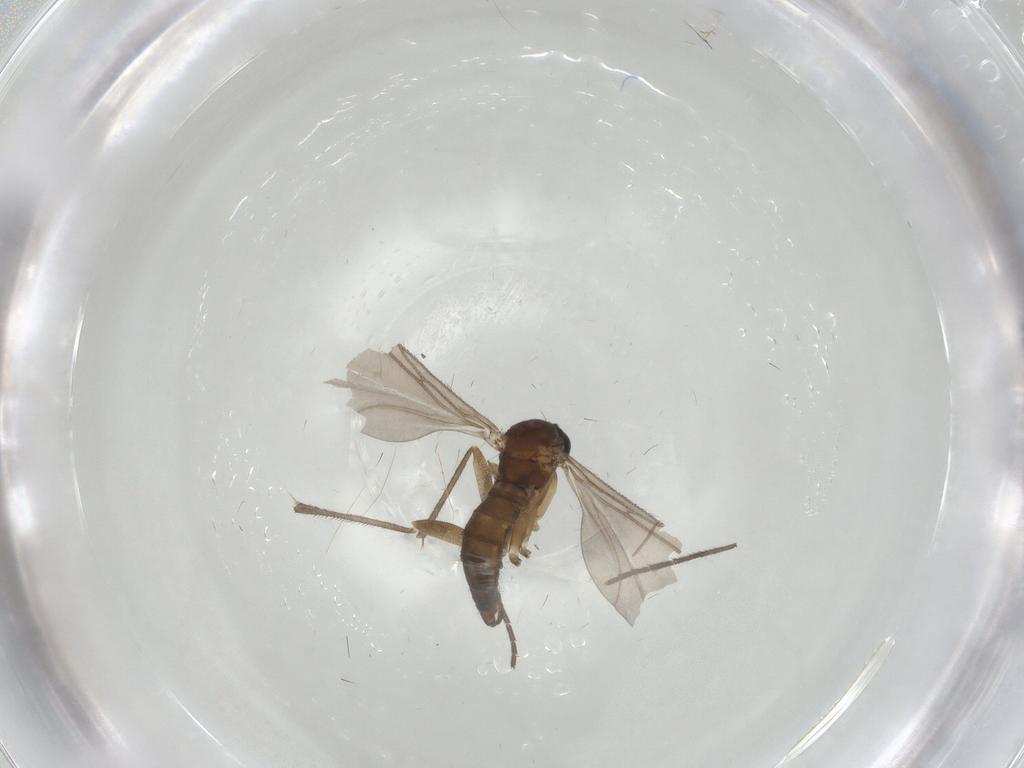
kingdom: Animalia
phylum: Arthropoda
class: Insecta
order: Trichoptera
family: Lepidostomatidae
